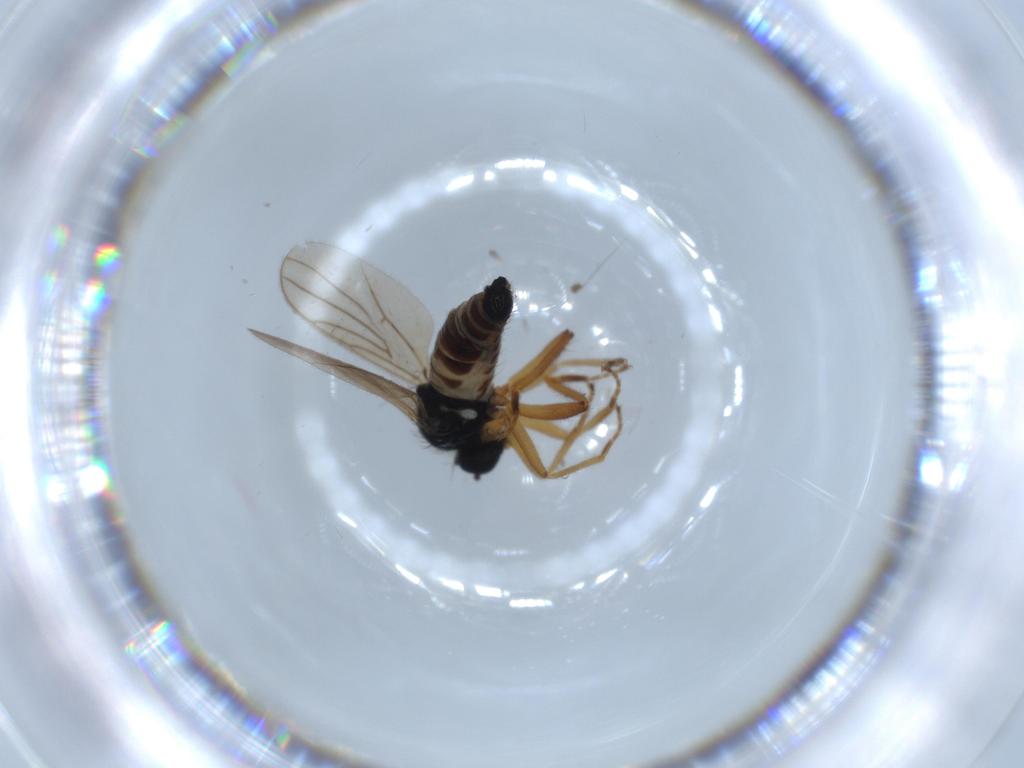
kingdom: Animalia
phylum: Arthropoda
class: Insecta
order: Diptera
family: Hybotidae
